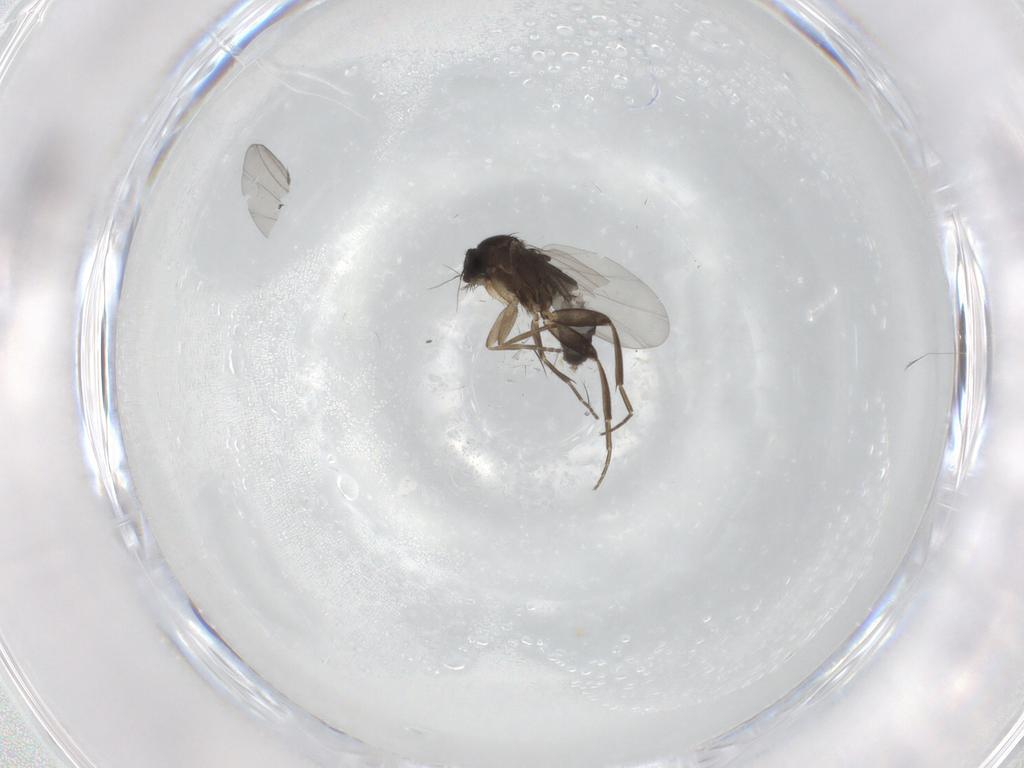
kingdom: Animalia
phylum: Arthropoda
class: Insecta
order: Diptera
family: Phoridae
